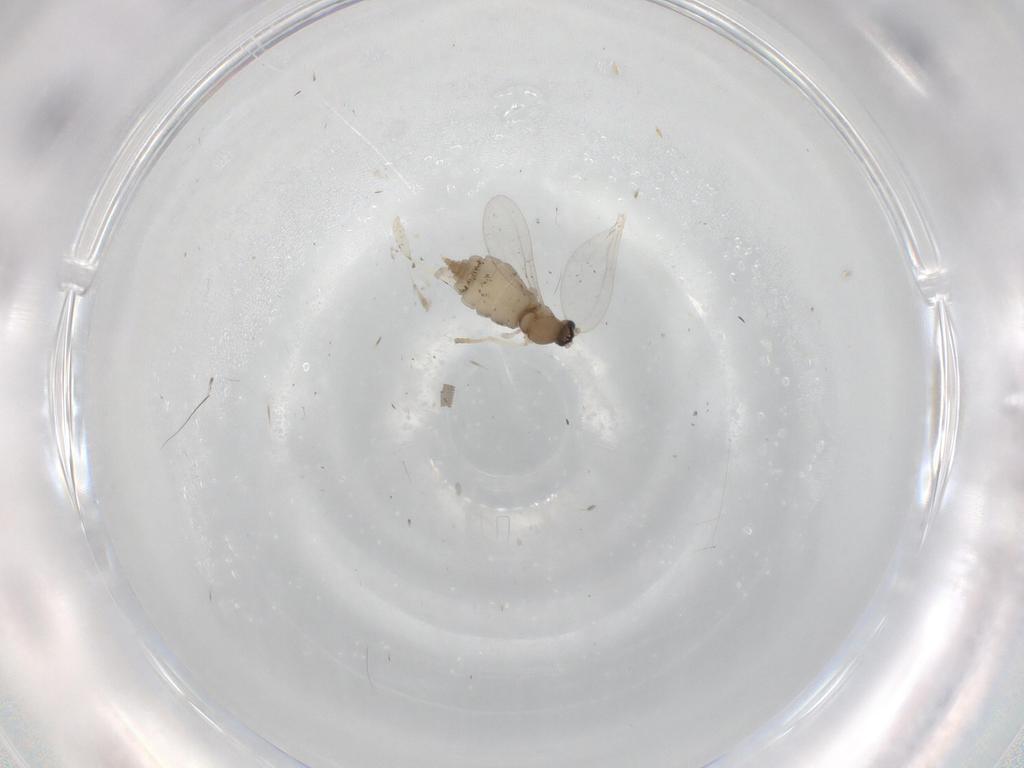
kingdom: Animalia
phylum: Arthropoda
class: Insecta
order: Diptera
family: Cecidomyiidae
